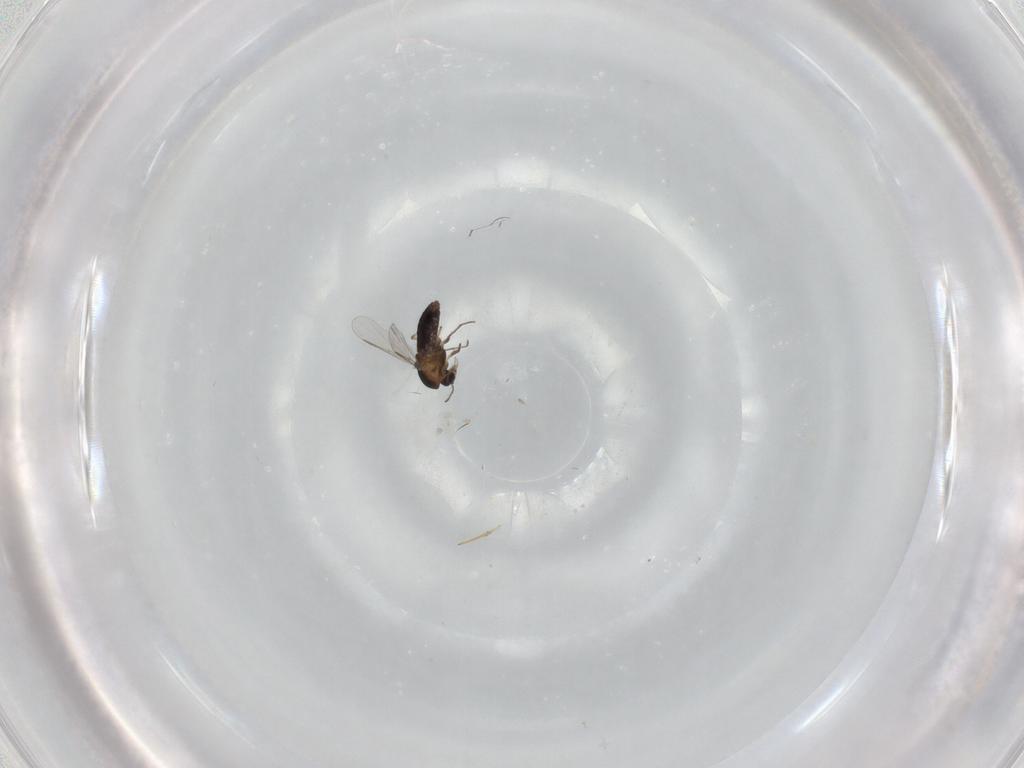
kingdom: Animalia
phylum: Arthropoda
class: Insecta
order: Diptera
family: Chironomidae
